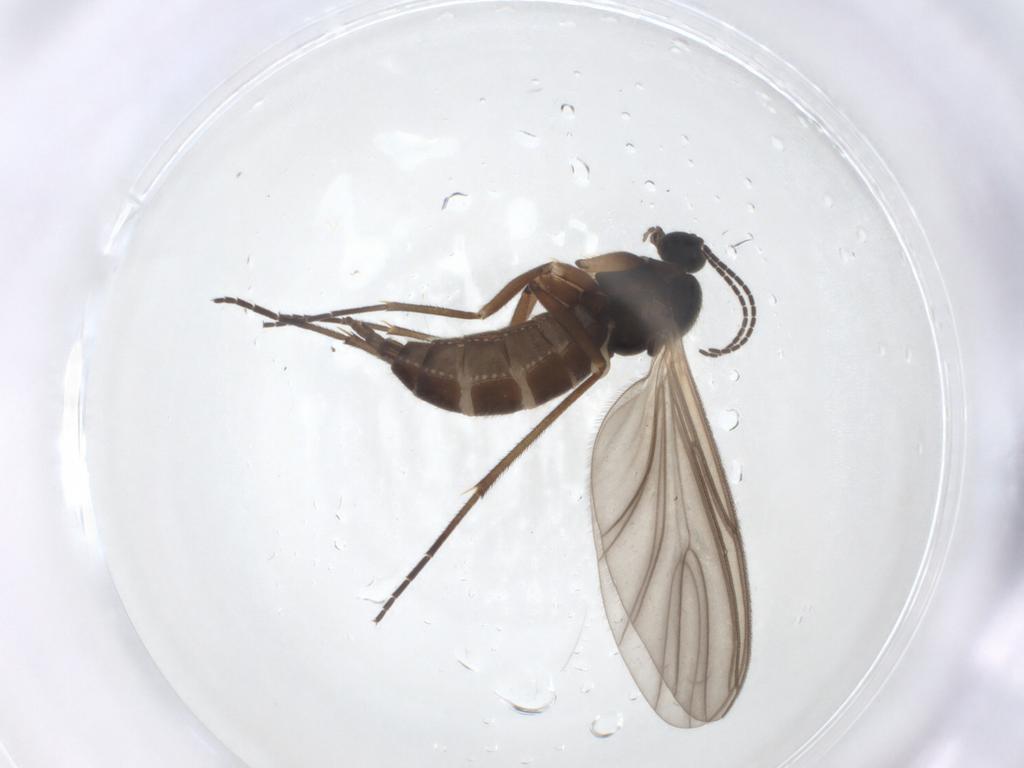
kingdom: Animalia
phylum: Arthropoda
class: Insecta
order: Diptera
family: Sciaridae
